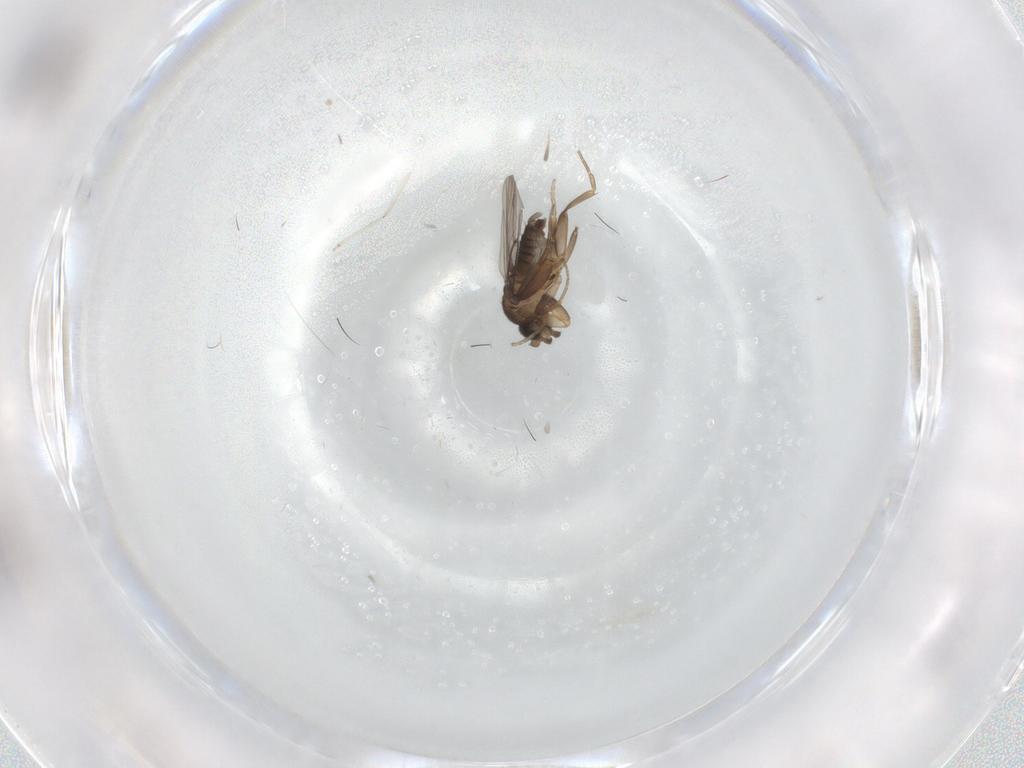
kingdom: Animalia
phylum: Arthropoda
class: Insecta
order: Diptera
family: Cecidomyiidae
